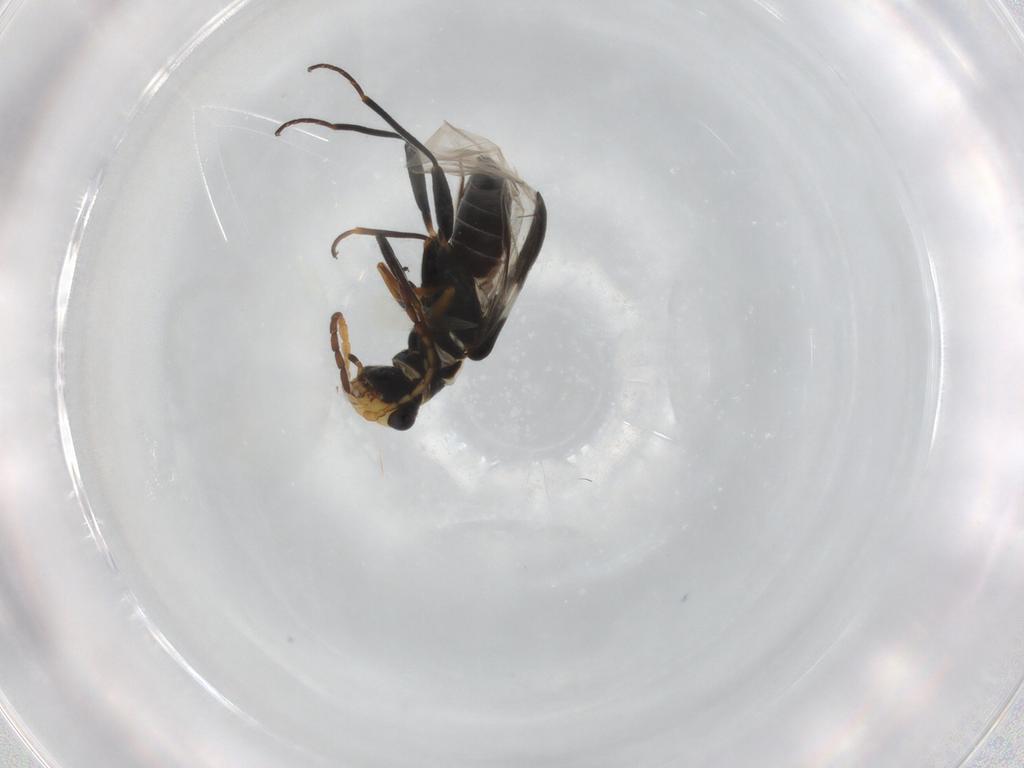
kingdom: Animalia
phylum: Arthropoda
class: Insecta
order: Coleoptera
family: Melyridae
